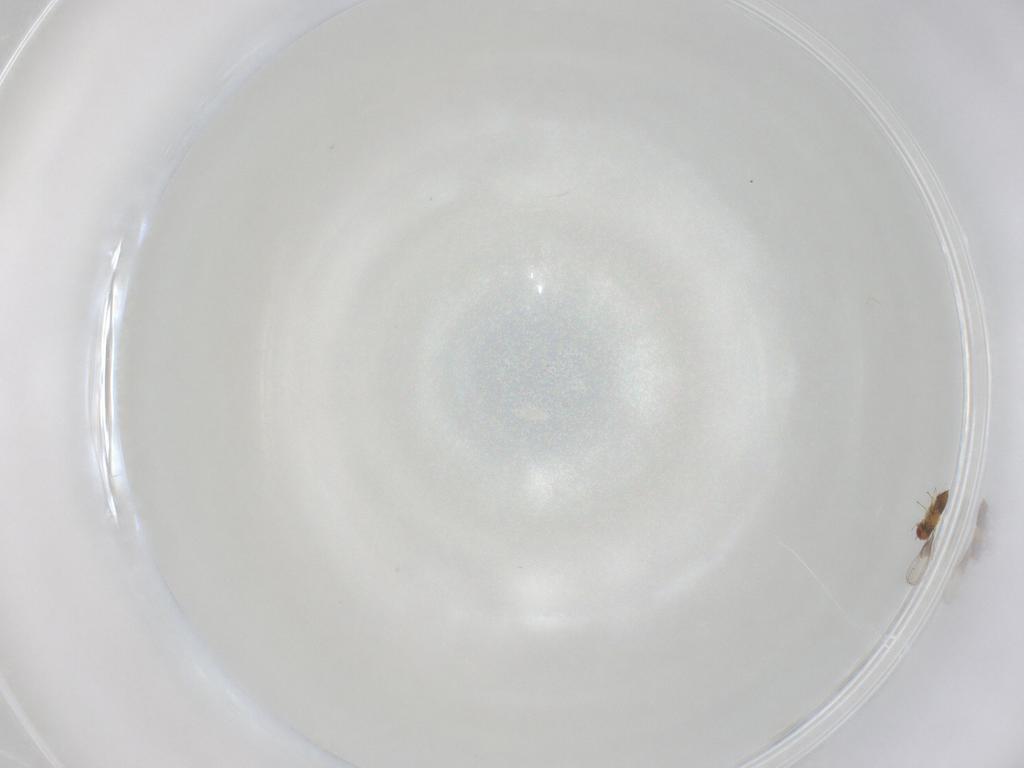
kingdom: Animalia
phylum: Arthropoda
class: Insecta
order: Hymenoptera
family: Trichogrammatidae
